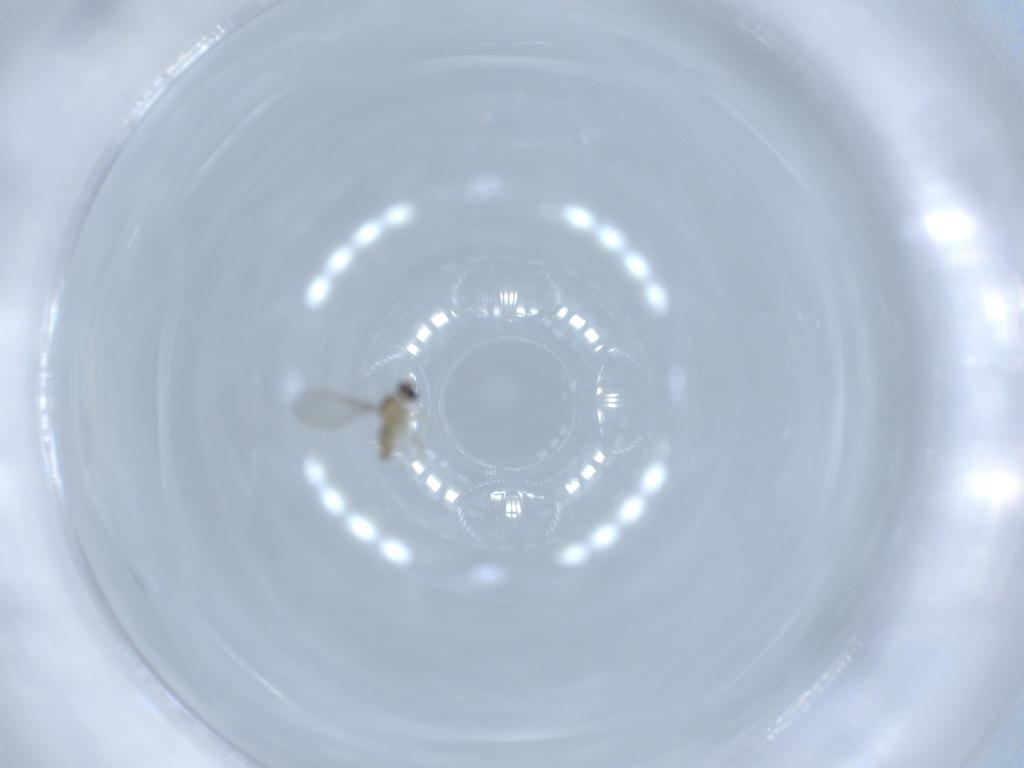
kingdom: Animalia
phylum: Arthropoda
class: Insecta
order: Diptera
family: Cecidomyiidae
